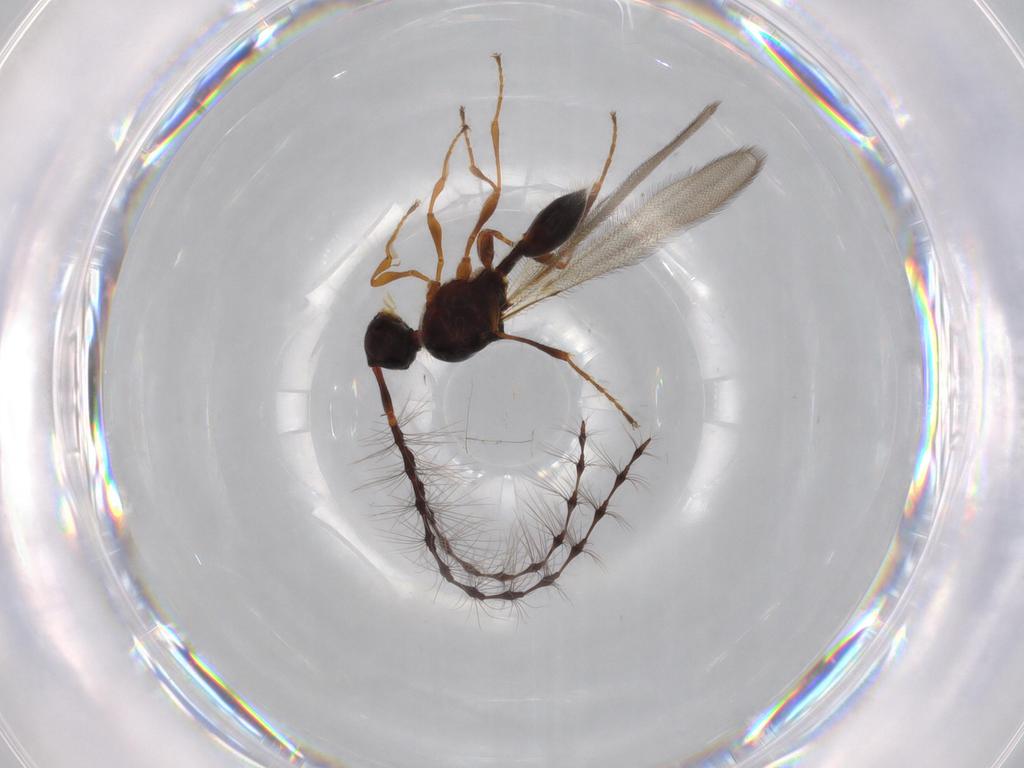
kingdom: Animalia
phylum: Arthropoda
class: Insecta
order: Hymenoptera
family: Diapriidae
